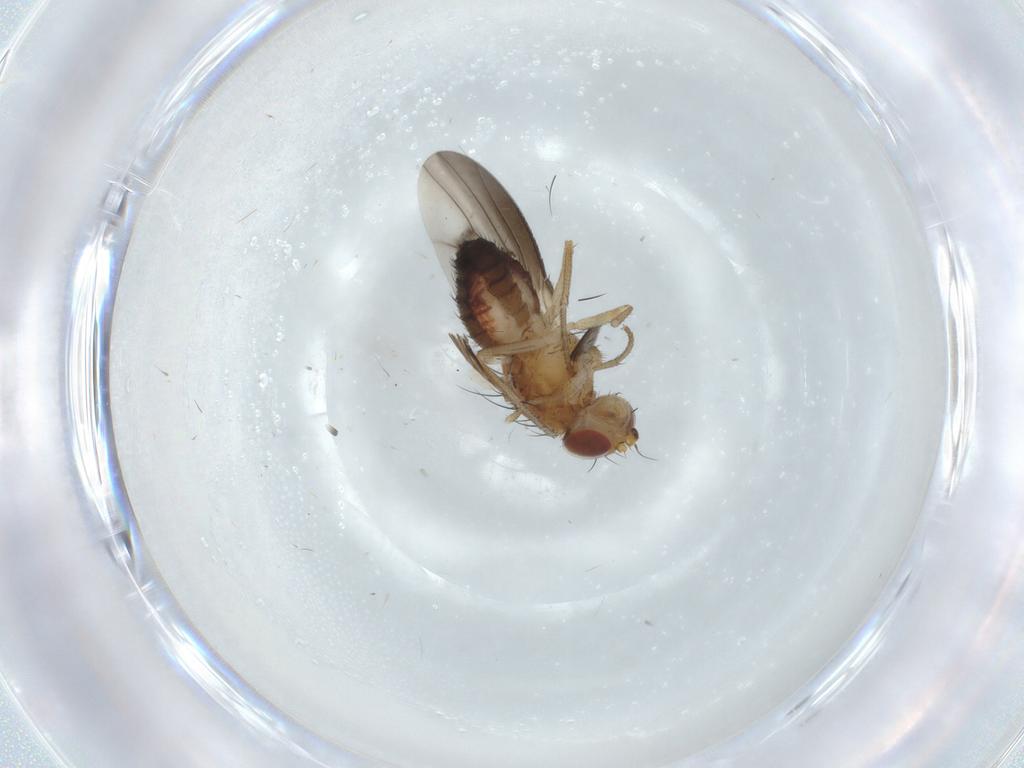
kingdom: Animalia
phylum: Arthropoda
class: Insecta
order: Diptera
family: Heleomyzidae
